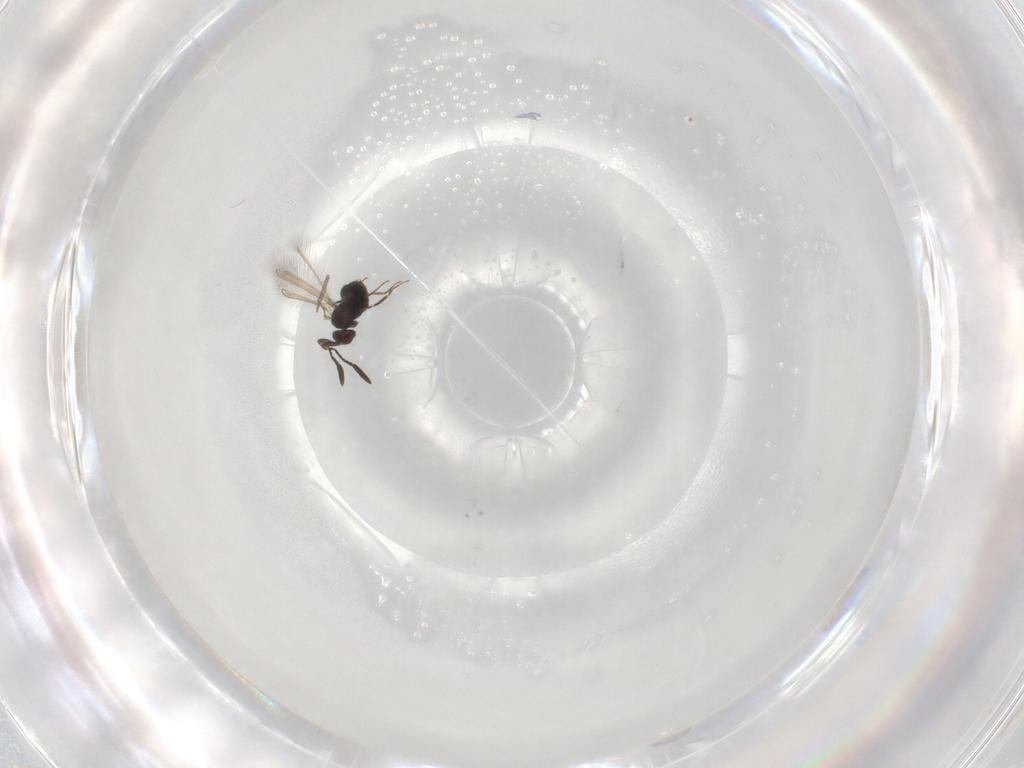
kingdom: Animalia
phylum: Arthropoda
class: Insecta
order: Hymenoptera
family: Mymaridae
